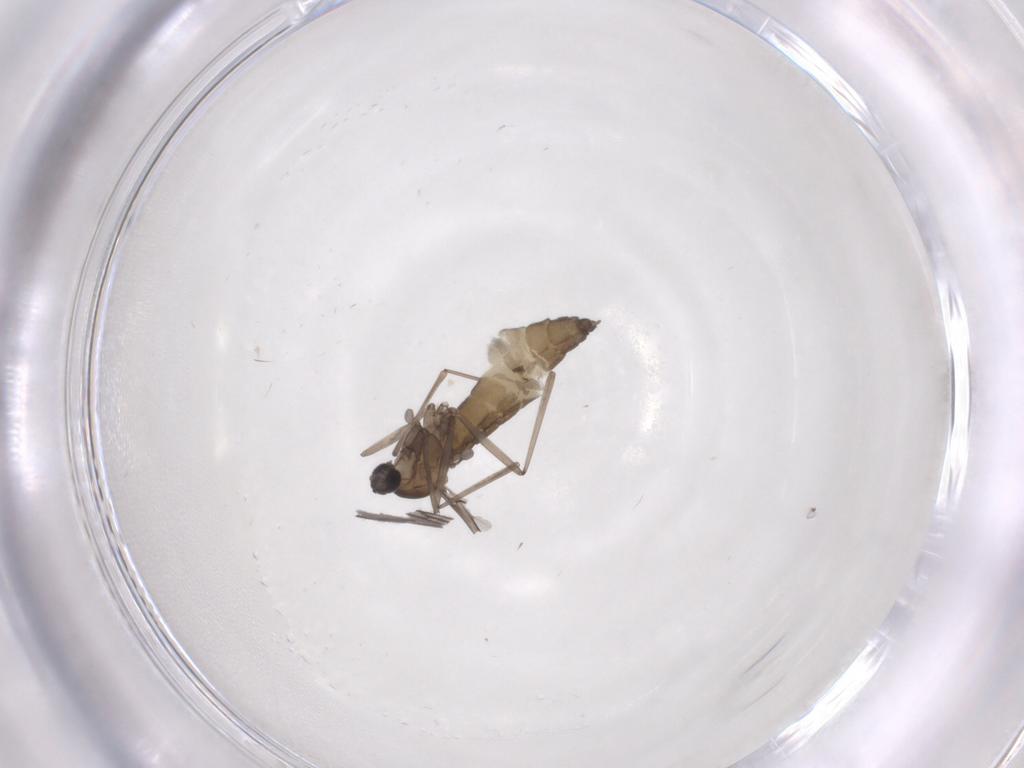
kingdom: Animalia
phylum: Arthropoda
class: Insecta
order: Diptera
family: Cecidomyiidae
